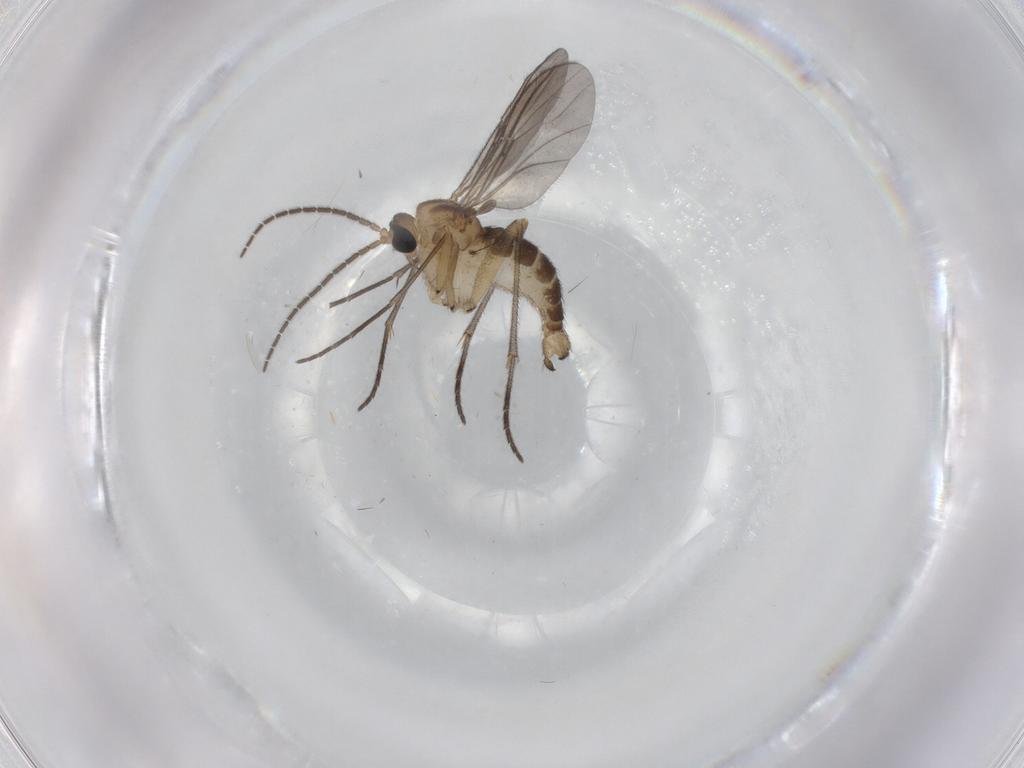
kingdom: Animalia
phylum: Arthropoda
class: Insecta
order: Diptera
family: Sciaridae
